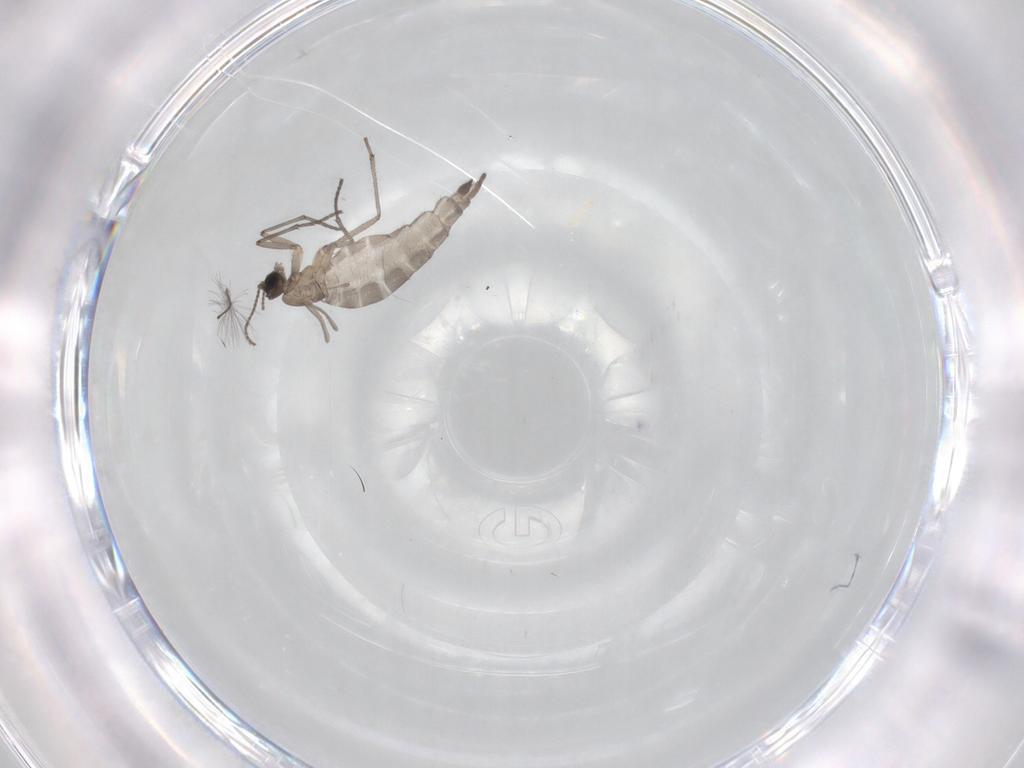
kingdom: Animalia
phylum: Arthropoda
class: Insecta
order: Diptera
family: Chironomidae
